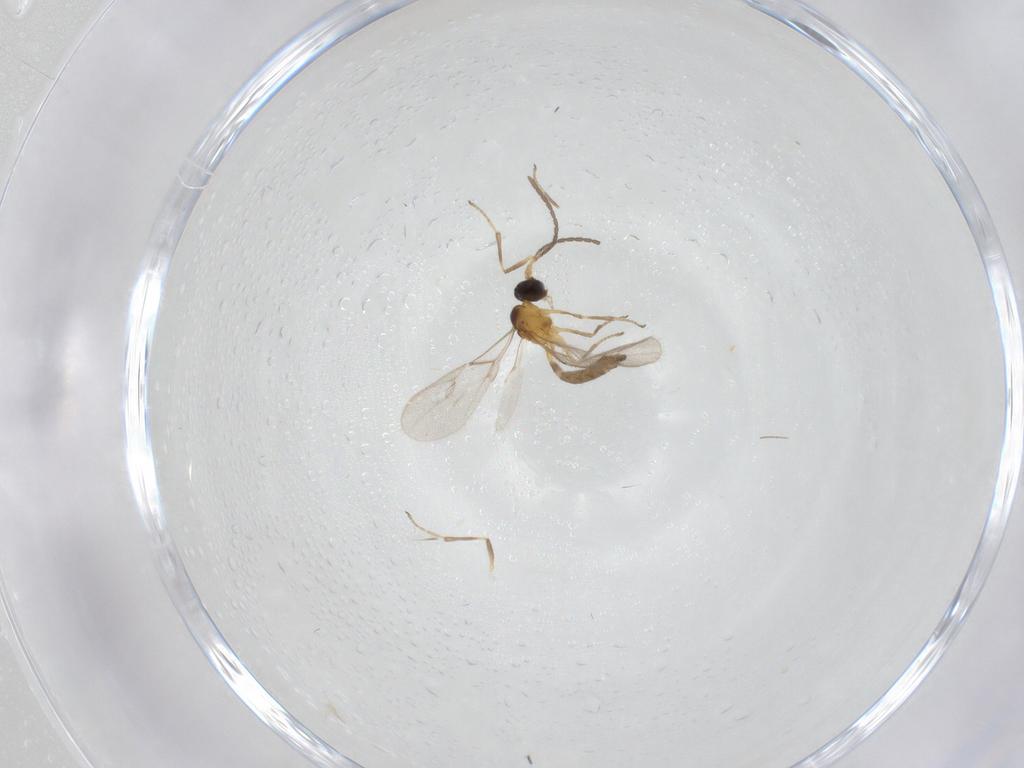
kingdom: Animalia
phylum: Arthropoda
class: Insecta
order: Hymenoptera
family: Braconidae
